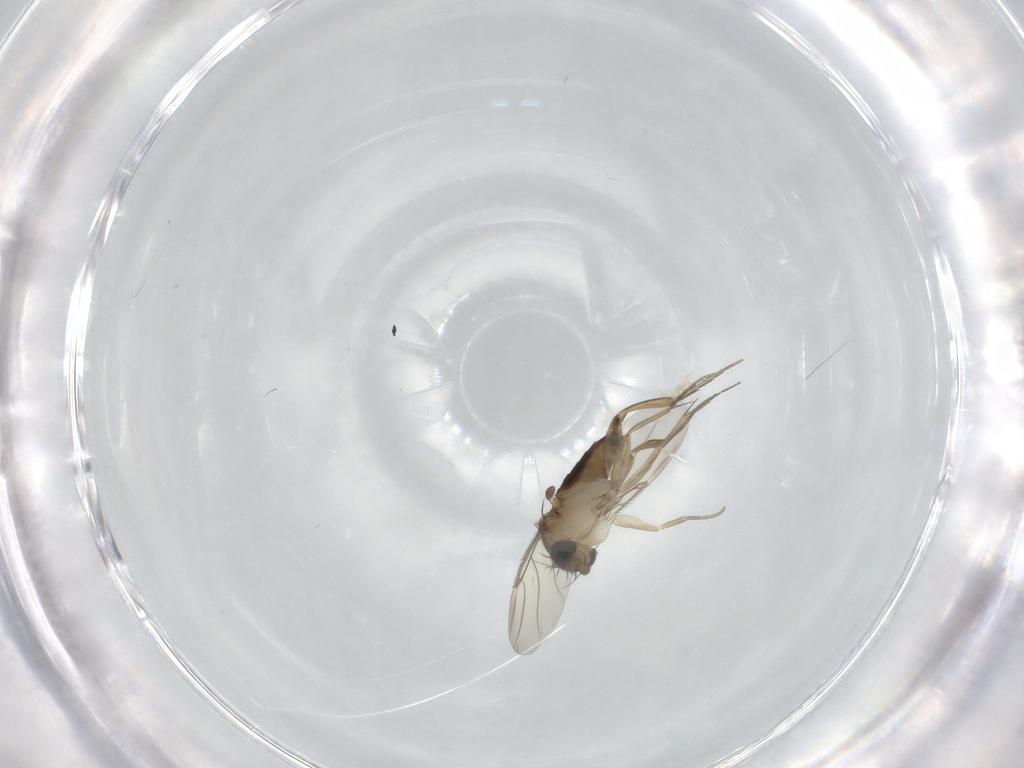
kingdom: Animalia
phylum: Arthropoda
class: Insecta
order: Diptera
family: Phoridae
